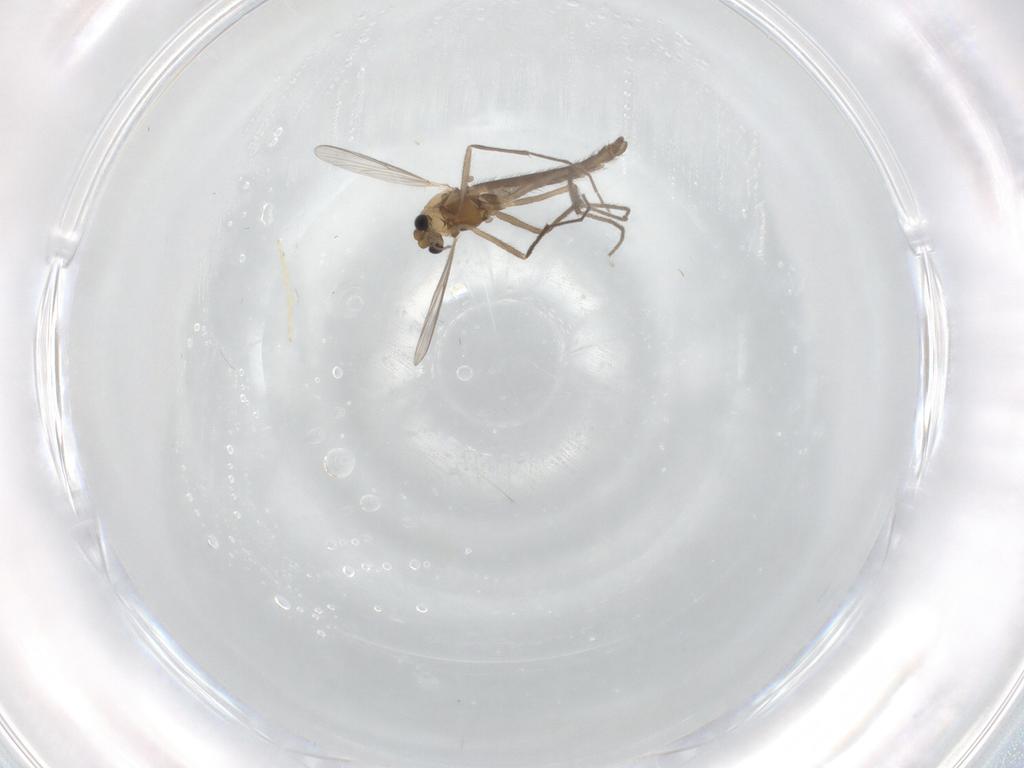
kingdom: Animalia
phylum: Arthropoda
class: Insecta
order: Diptera
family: Chironomidae
